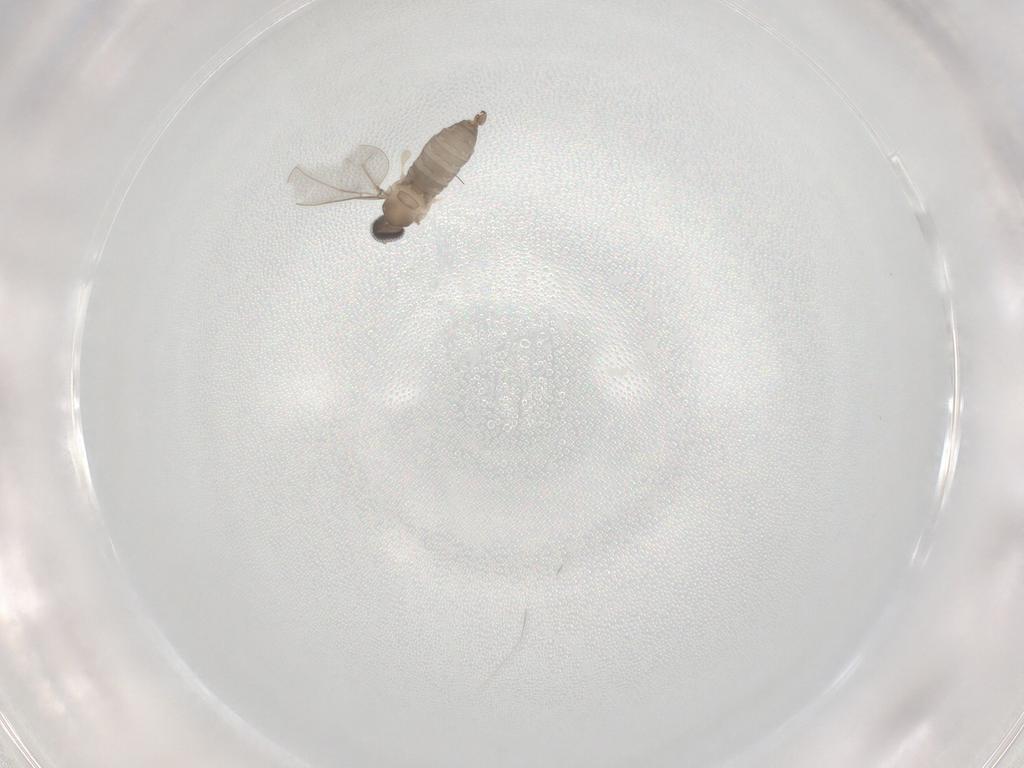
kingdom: Animalia
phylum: Arthropoda
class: Insecta
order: Diptera
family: Cecidomyiidae
